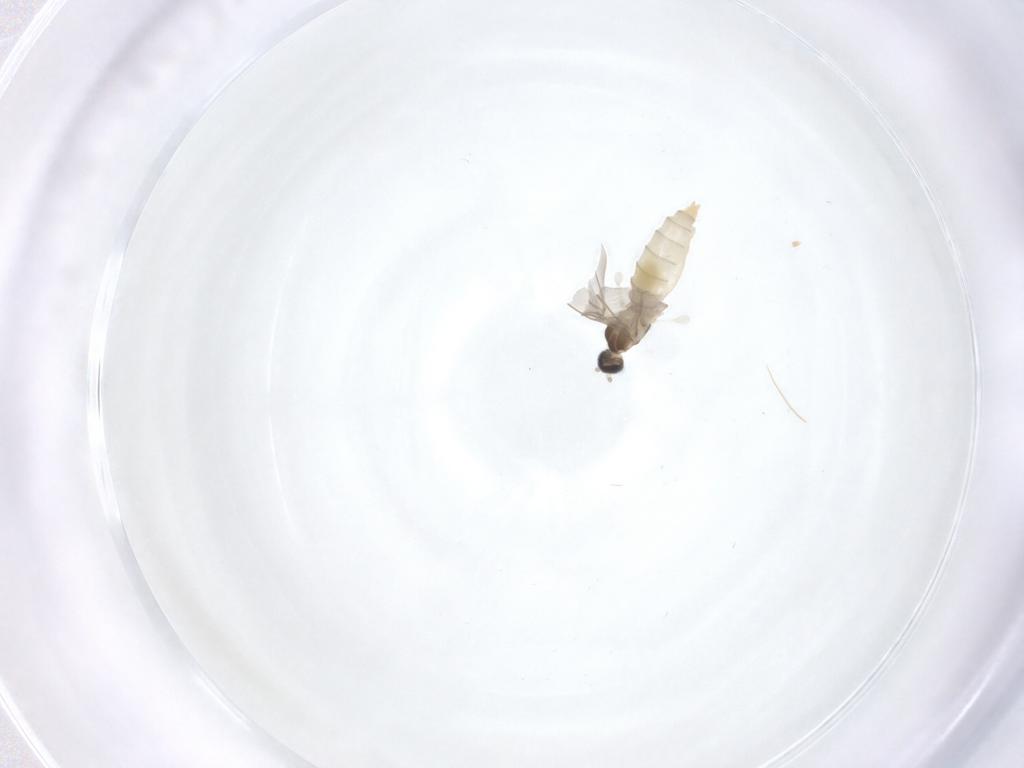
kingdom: Animalia
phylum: Arthropoda
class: Insecta
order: Diptera
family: Cecidomyiidae
